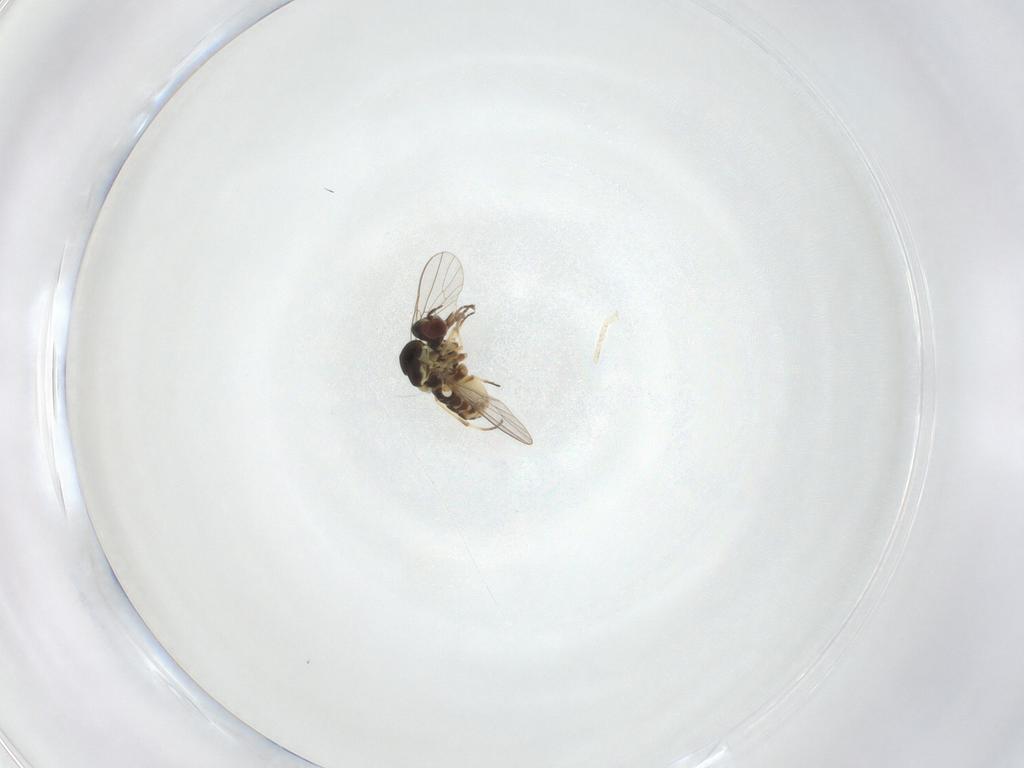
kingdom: Animalia
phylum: Arthropoda
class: Insecta
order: Diptera
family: Mythicomyiidae
